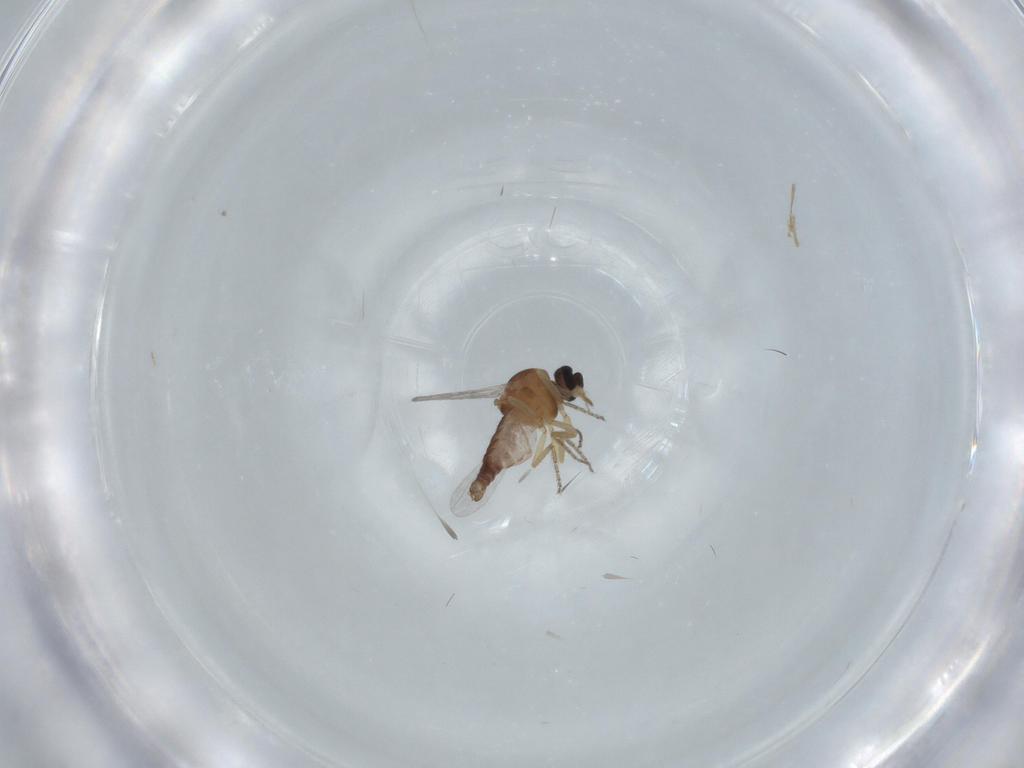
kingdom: Animalia
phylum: Arthropoda
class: Insecta
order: Diptera
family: Ceratopogonidae
